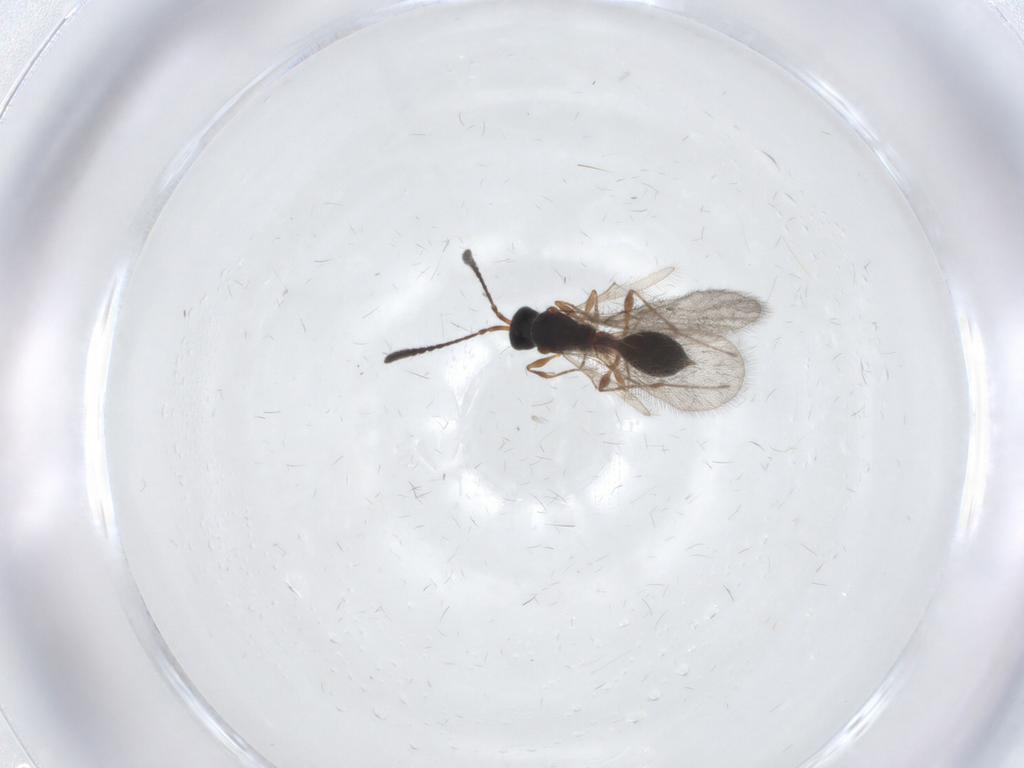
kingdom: Animalia
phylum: Arthropoda
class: Insecta
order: Hymenoptera
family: Diapriidae
